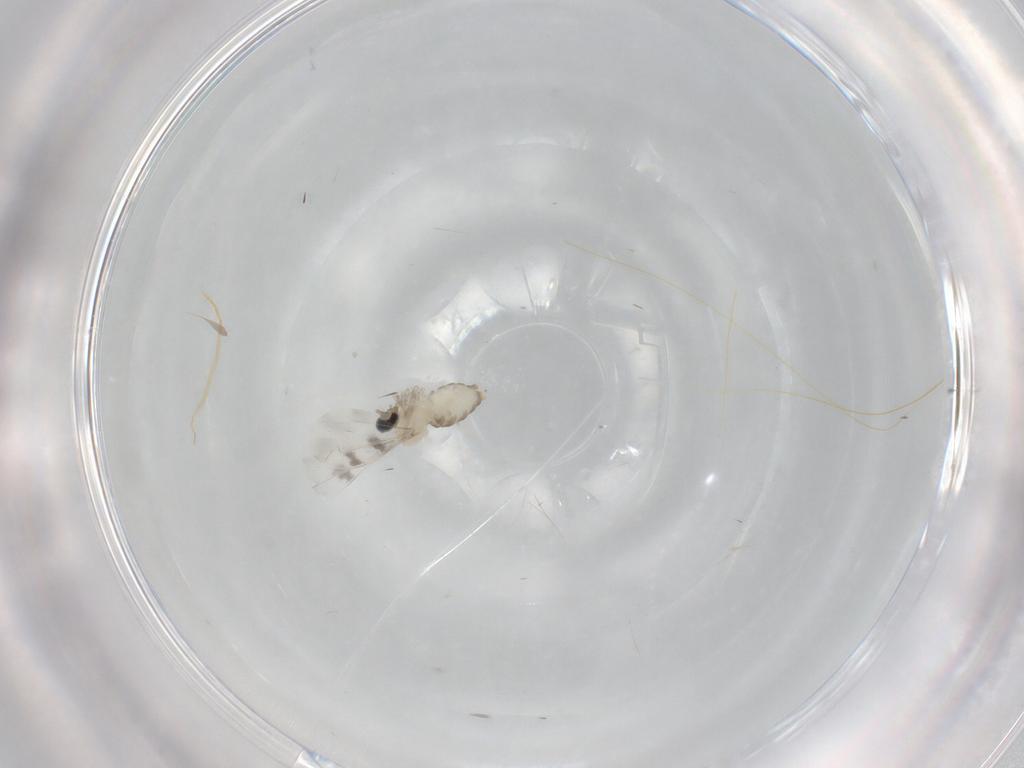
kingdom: Animalia
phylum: Arthropoda
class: Insecta
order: Diptera
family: Cecidomyiidae
